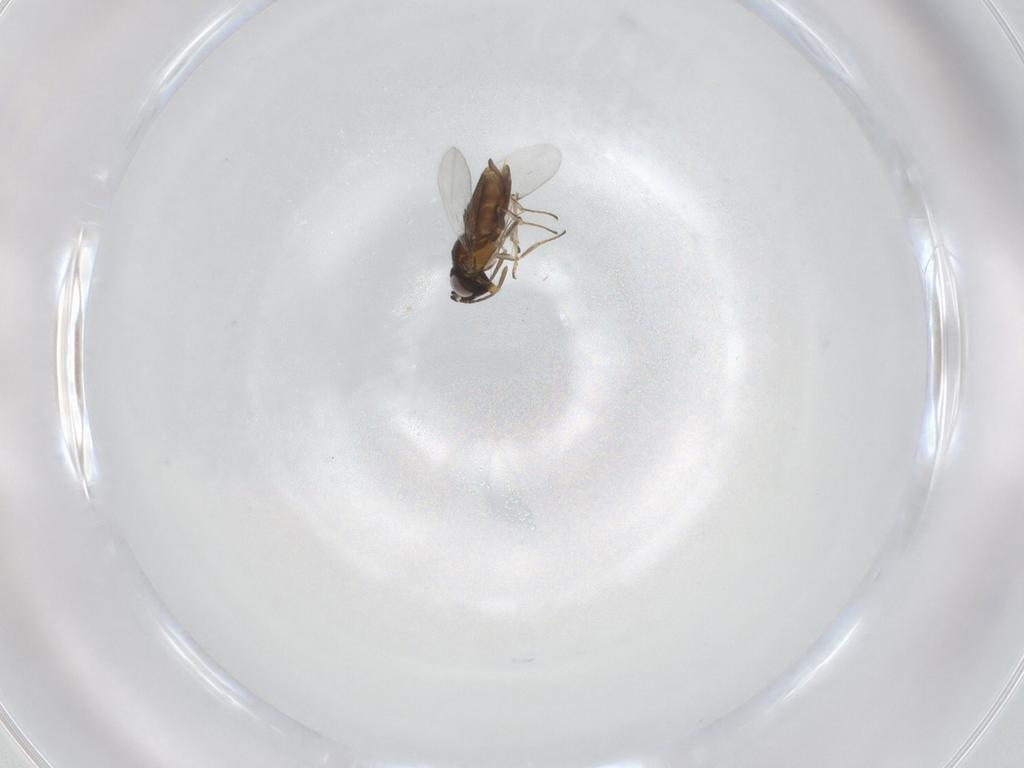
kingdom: Animalia
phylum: Arthropoda
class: Insecta
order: Hymenoptera
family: Encyrtidae
